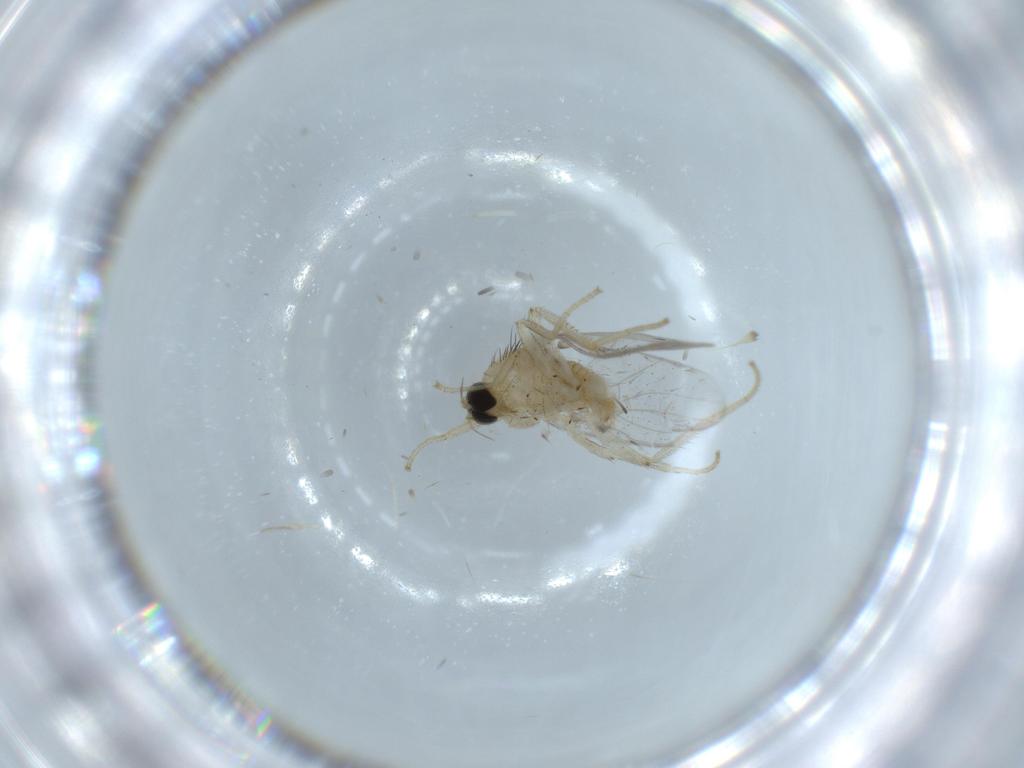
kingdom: Animalia
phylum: Arthropoda
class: Insecta
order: Diptera
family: Hybotidae
